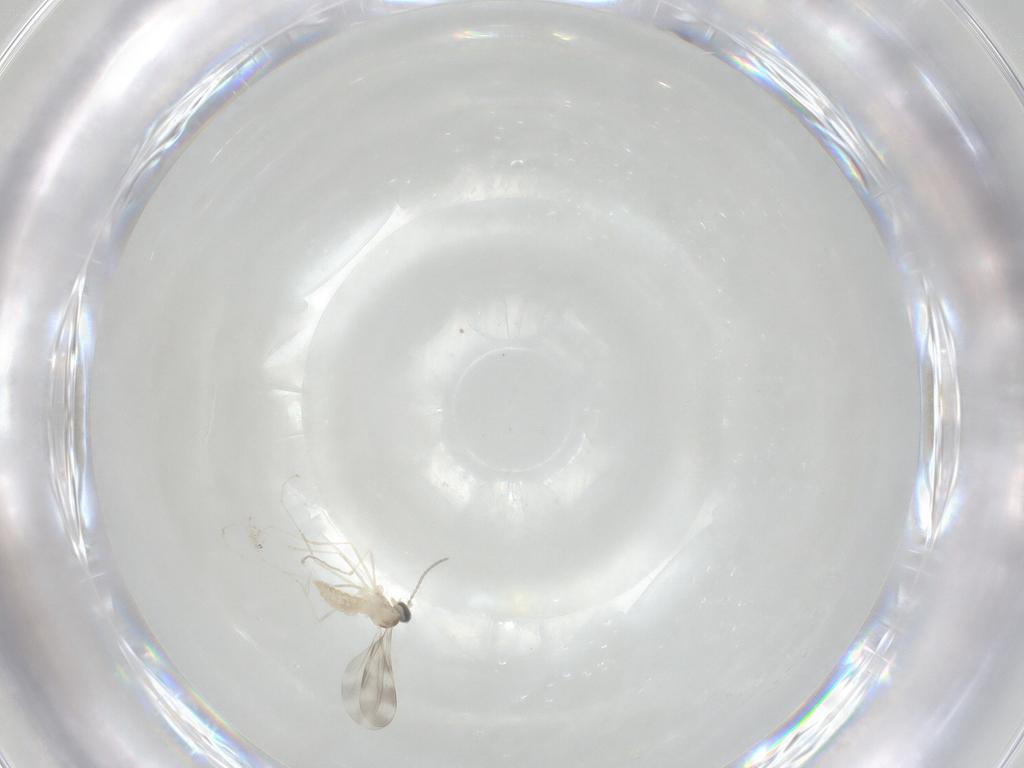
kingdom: Animalia
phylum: Arthropoda
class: Insecta
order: Diptera
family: Cecidomyiidae
